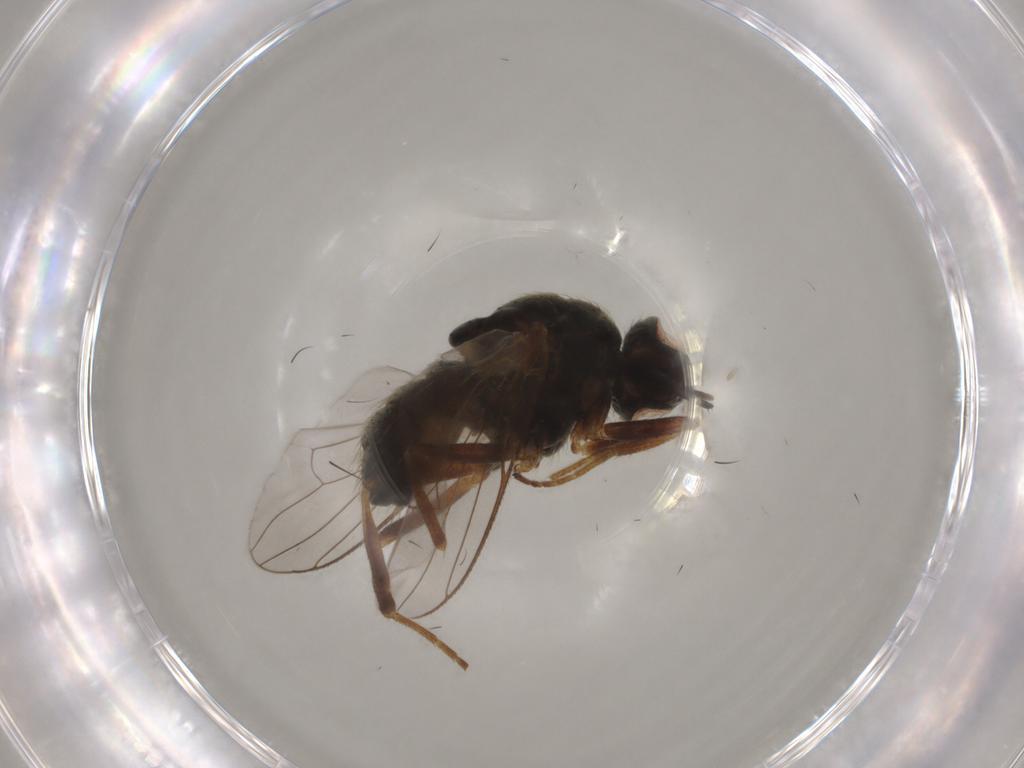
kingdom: Animalia
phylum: Arthropoda
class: Insecta
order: Diptera
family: Muscidae
